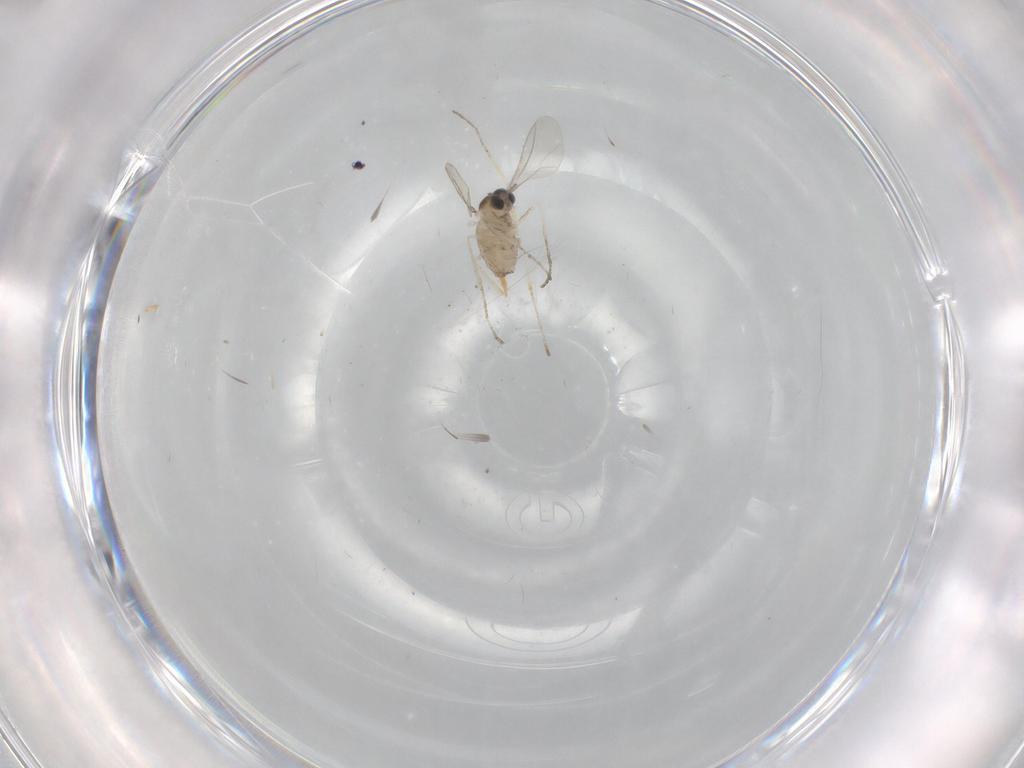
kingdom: Animalia
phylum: Arthropoda
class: Insecta
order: Diptera
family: Cecidomyiidae
